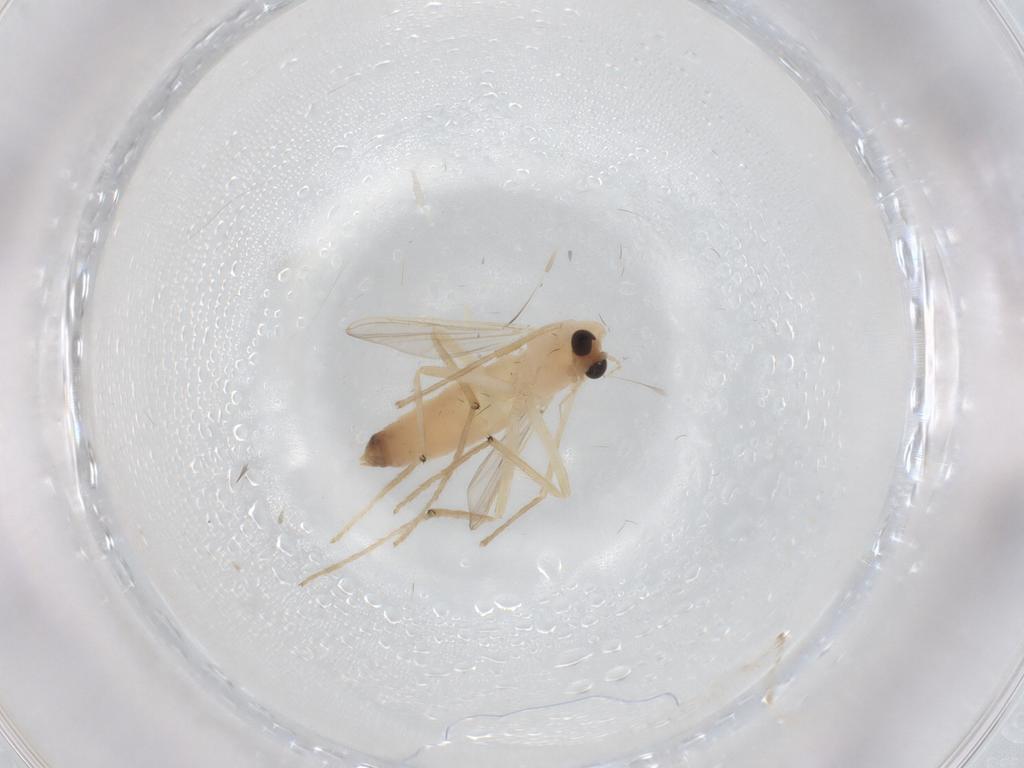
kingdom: Animalia
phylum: Arthropoda
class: Insecta
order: Diptera
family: Chironomidae
